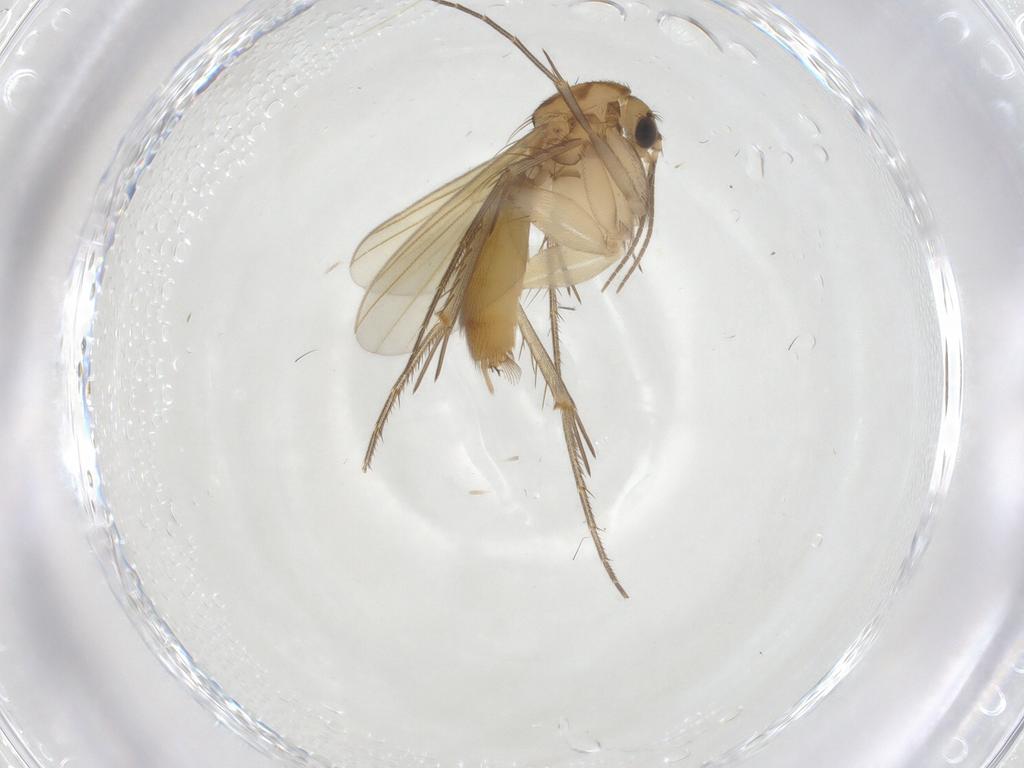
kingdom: Animalia
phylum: Arthropoda
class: Insecta
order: Diptera
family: Mycetophilidae
